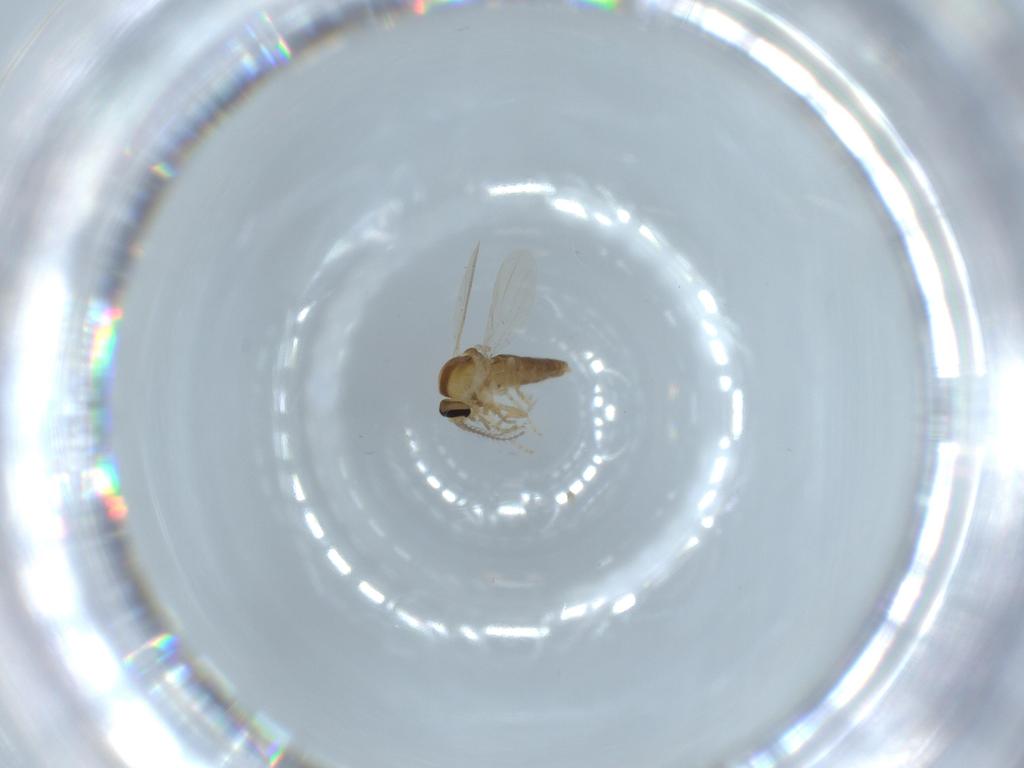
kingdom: Animalia
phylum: Arthropoda
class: Insecta
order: Diptera
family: Ceratopogonidae
